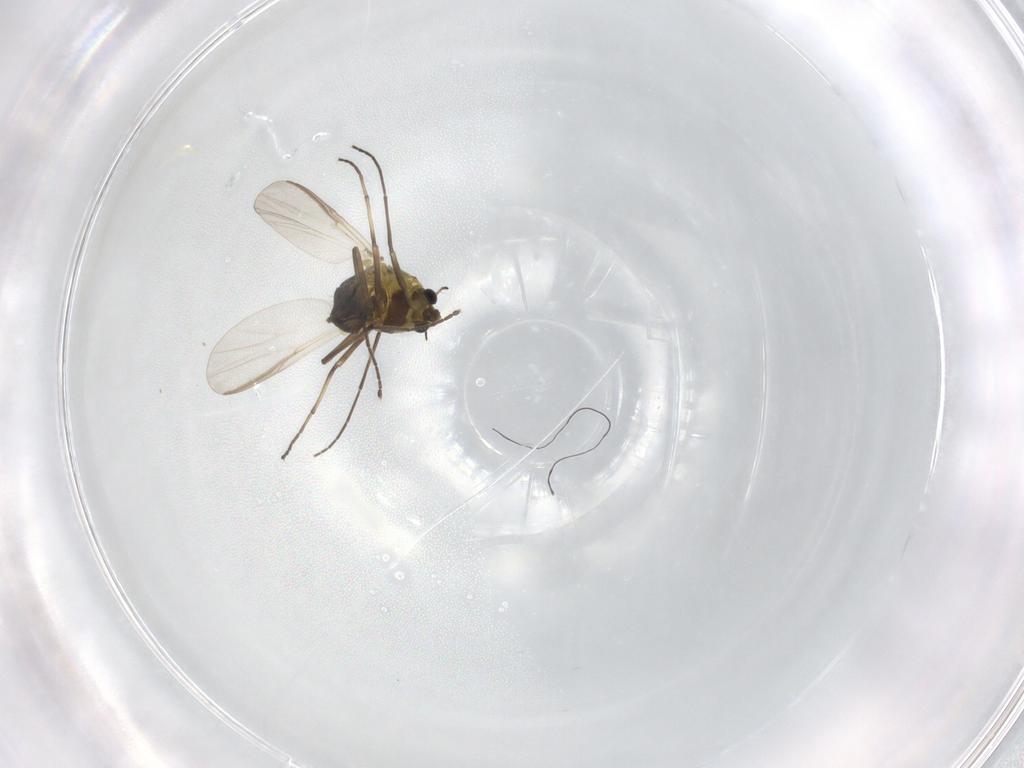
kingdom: Animalia
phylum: Arthropoda
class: Insecta
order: Diptera
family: Chironomidae
